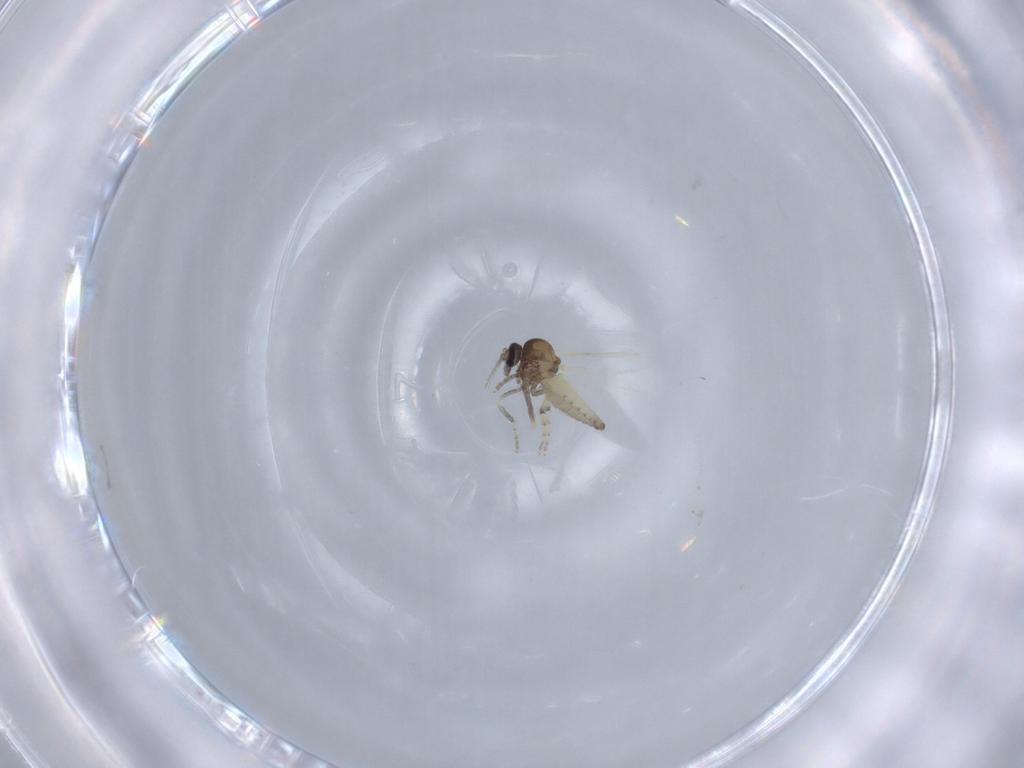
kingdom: Animalia
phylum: Arthropoda
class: Insecta
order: Diptera
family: Ceratopogonidae
